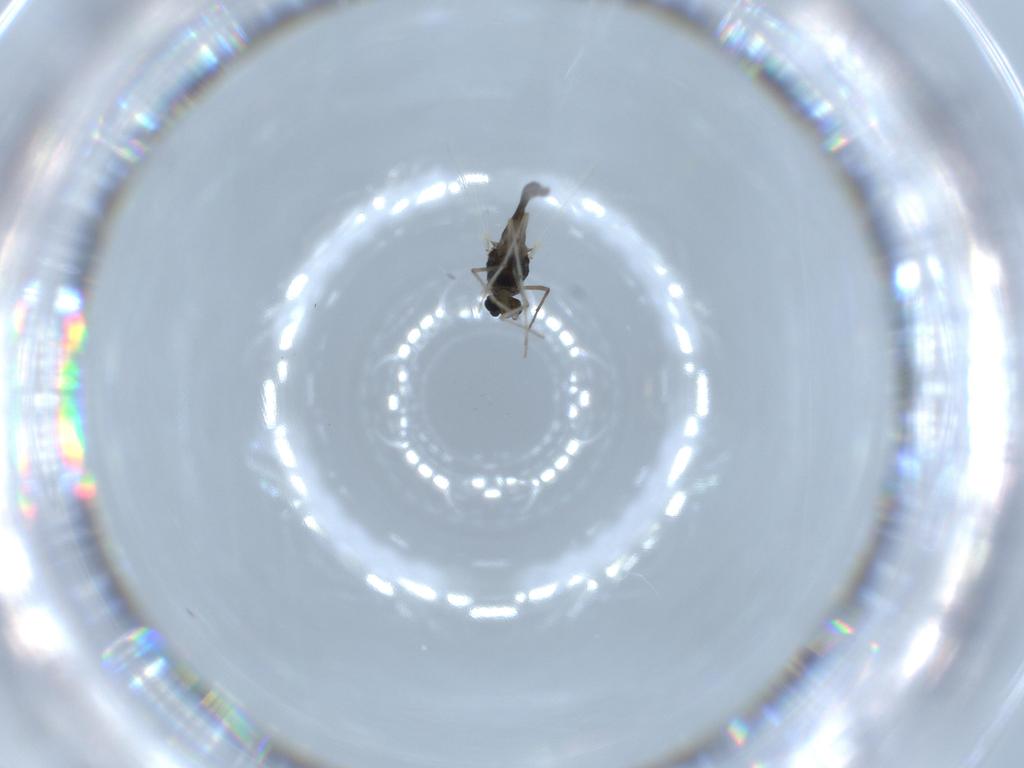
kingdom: Animalia
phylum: Arthropoda
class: Insecta
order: Diptera
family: Chironomidae
